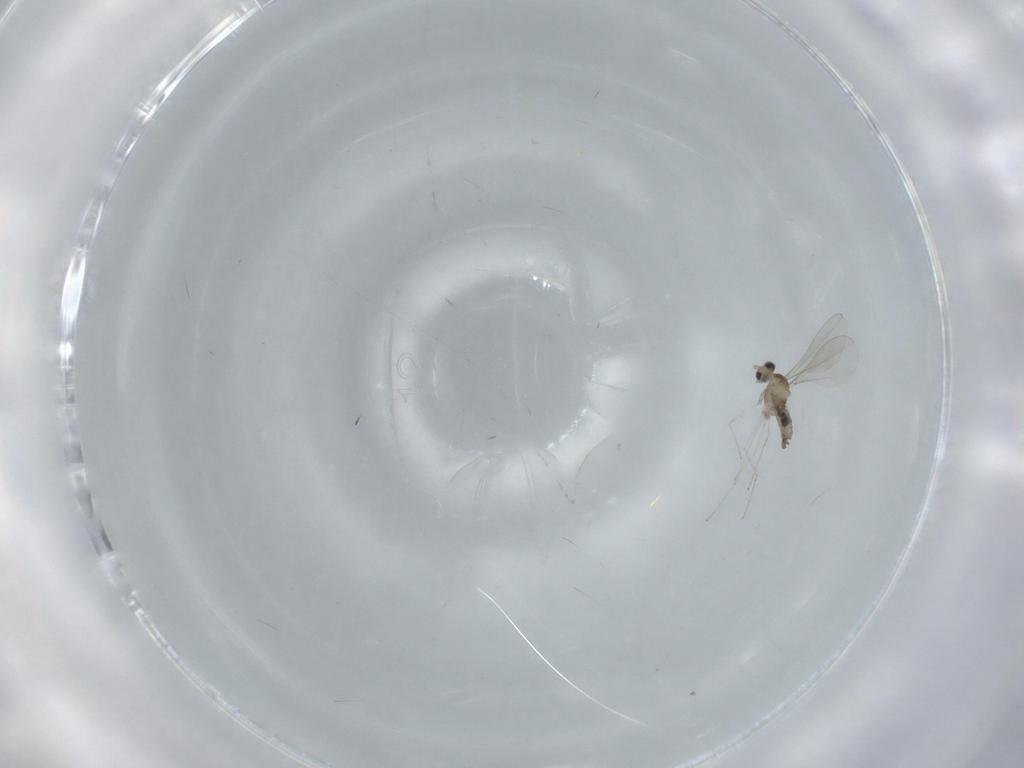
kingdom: Animalia
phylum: Arthropoda
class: Insecta
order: Diptera
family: Cecidomyiidae
